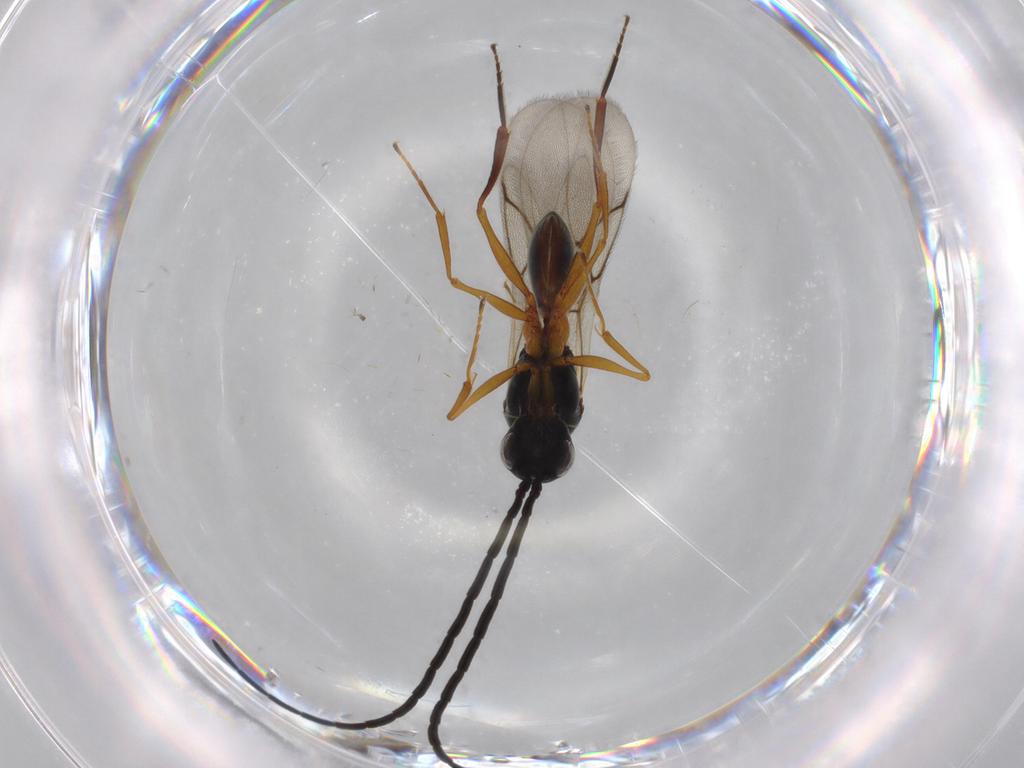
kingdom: Animalia
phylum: Arthropoda
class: Insecta
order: Hymenoptera
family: Figitidae
